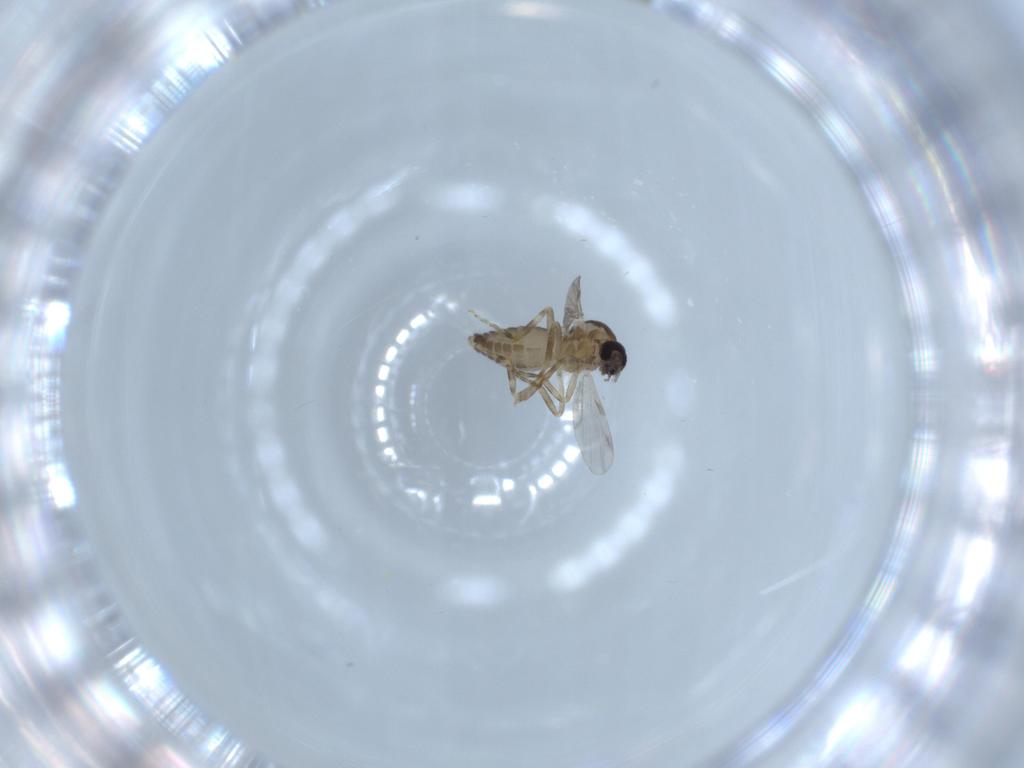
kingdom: Animalia
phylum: Arthropoda
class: Insecta
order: Diptera
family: Ceratopogonidae
